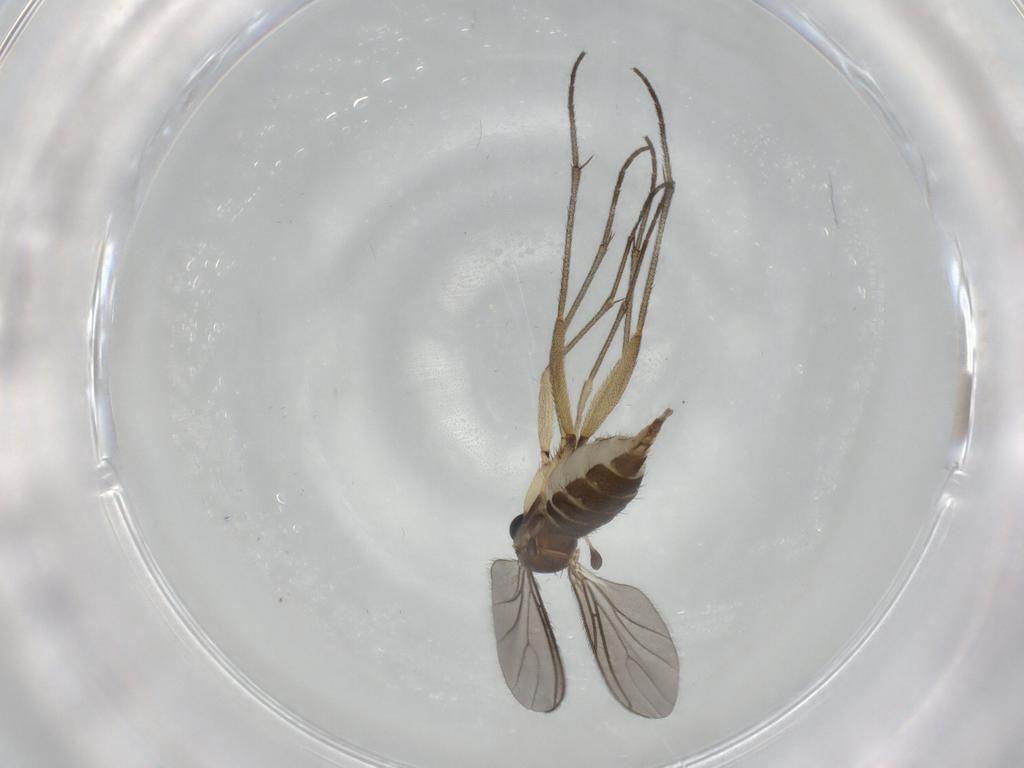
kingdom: Animalia
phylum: Arthropoda
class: Insecta
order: Diptera
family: Sciaridae
